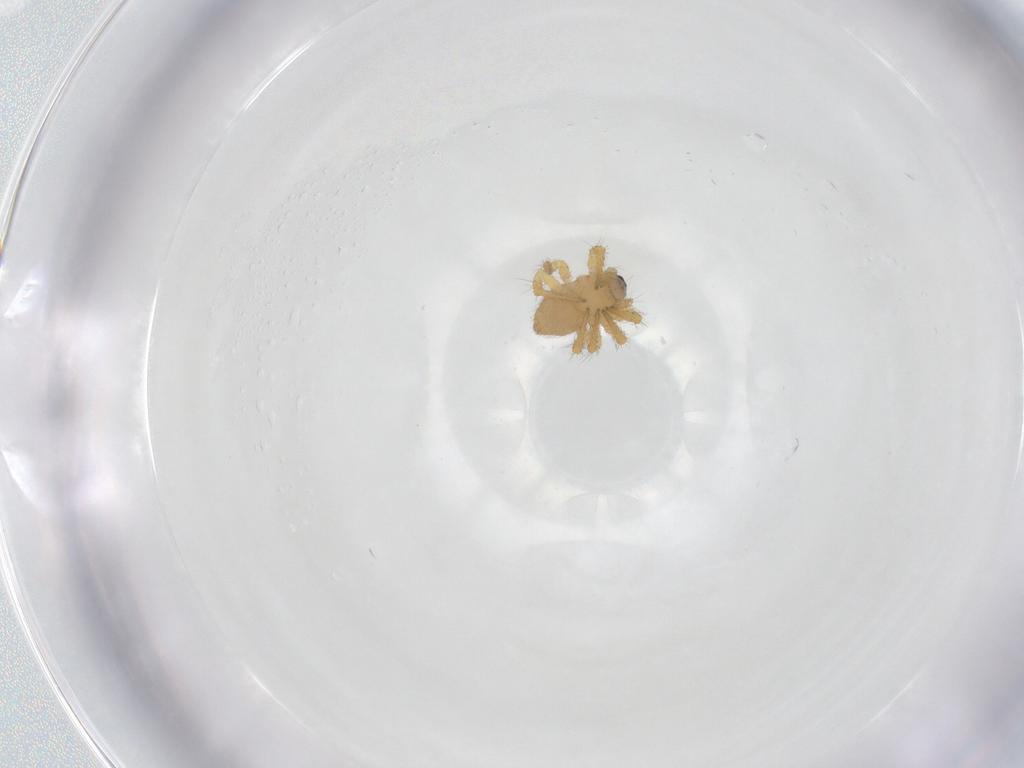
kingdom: Animalia
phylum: Arthropoda
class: Arachnida
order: Araneae
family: Theridiidae
